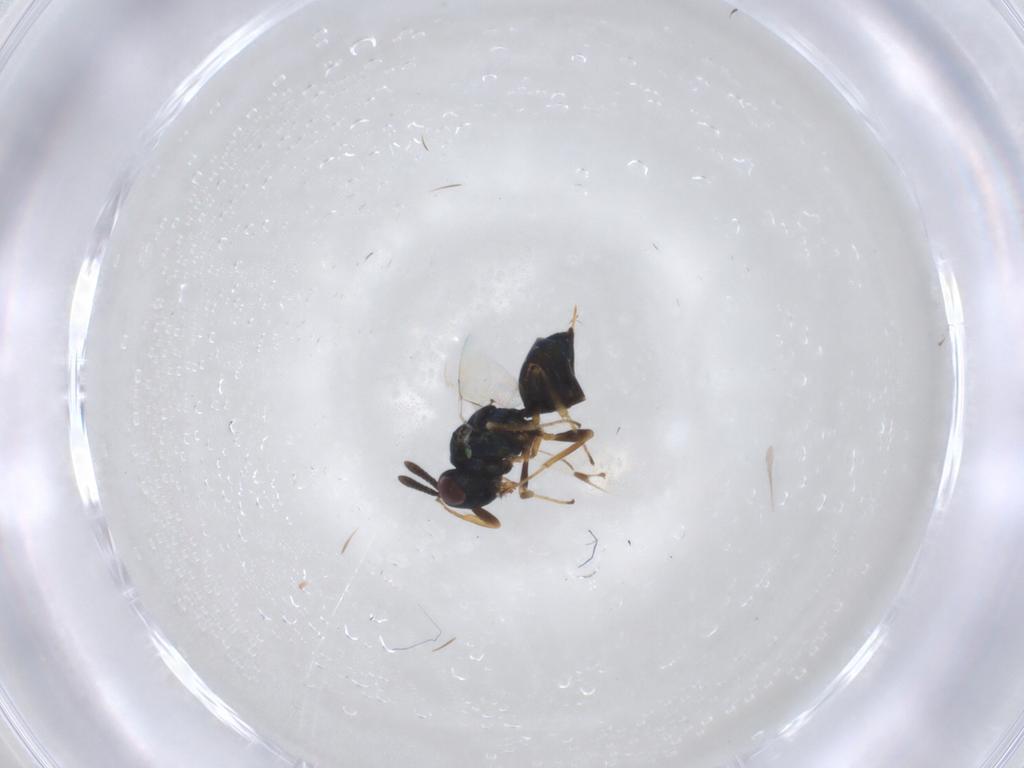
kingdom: Animalia
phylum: Arthropoda
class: Insecta
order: Hymenoptera
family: Pteromalidae
